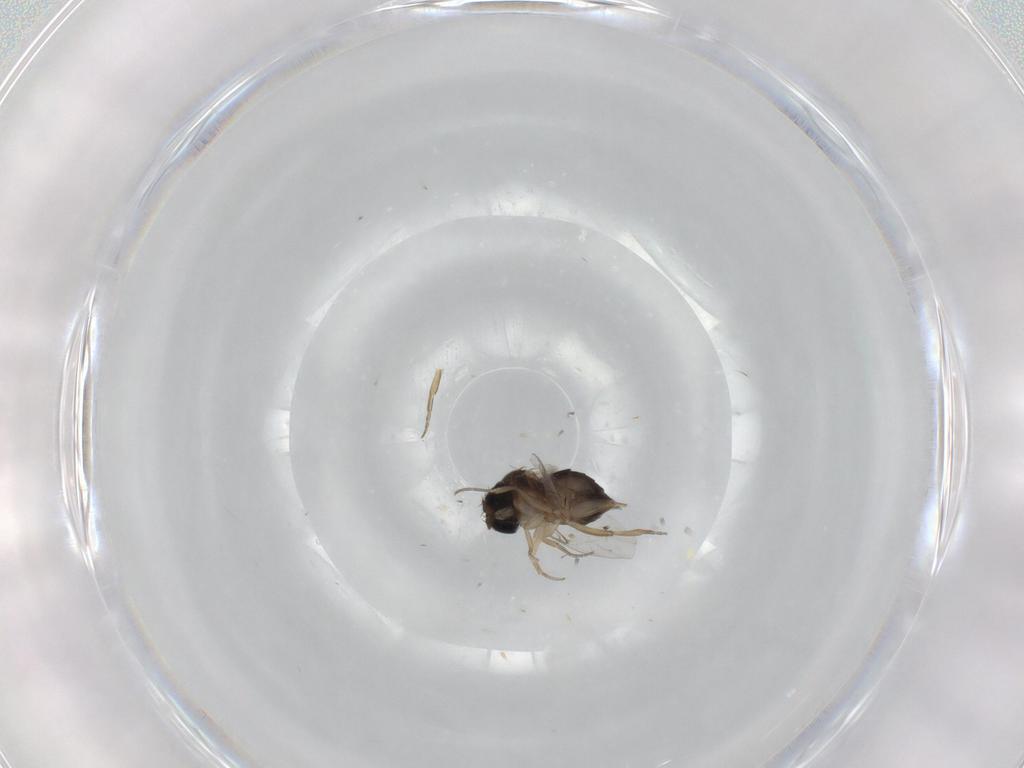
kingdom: Animalia
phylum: Arthropoda
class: Insecta
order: Diptera
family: Phoridae
